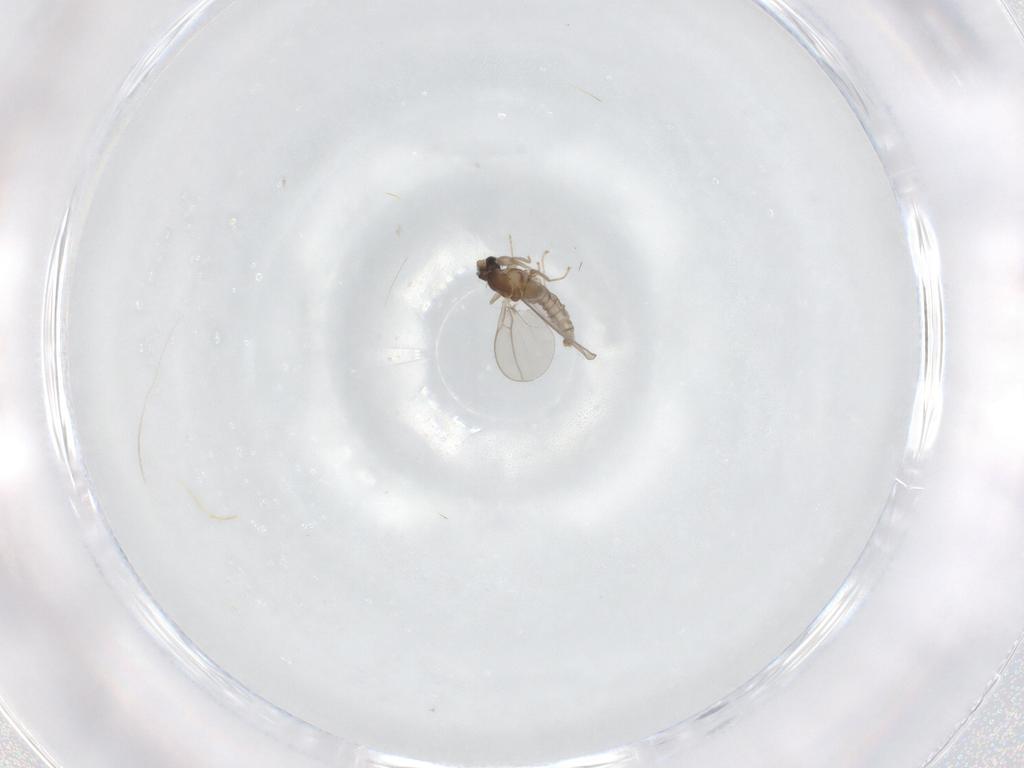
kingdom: Animalia
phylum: Arthropoda
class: Insecta
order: Diptera
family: Cecidomyiidae
